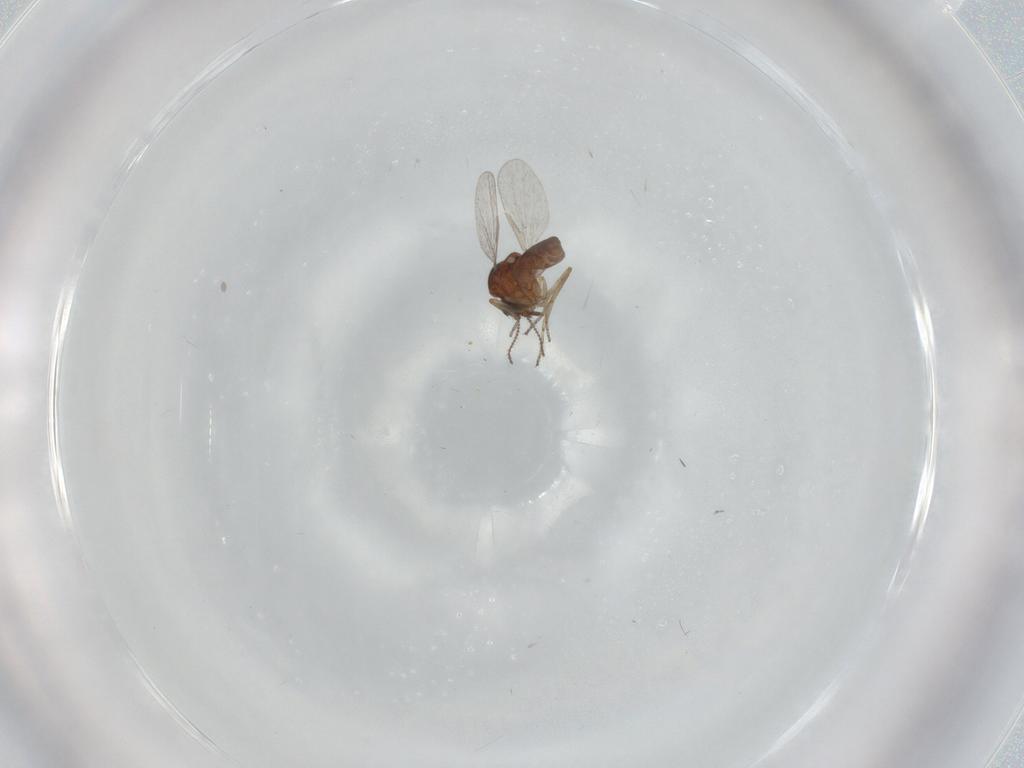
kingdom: Animalia
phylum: Arthropoda
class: Insecta
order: Diptera
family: Ceratopogonidae
